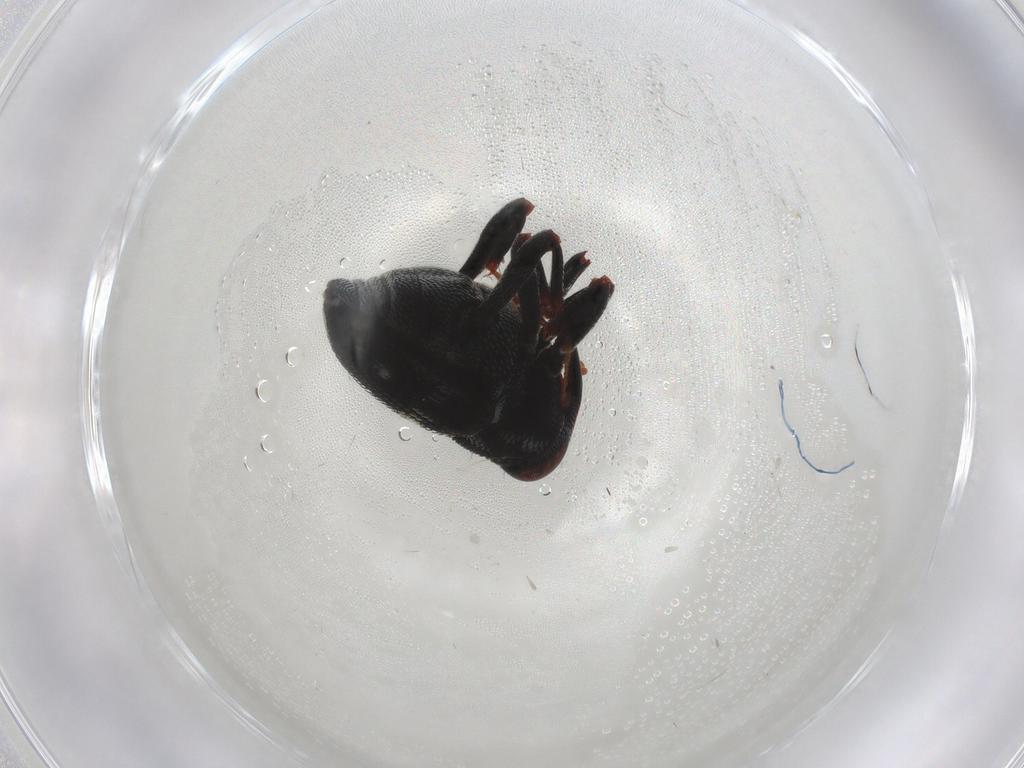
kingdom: Animalia
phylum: Arthropoda
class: Insecta
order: Coleoptera
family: Curculionidae
